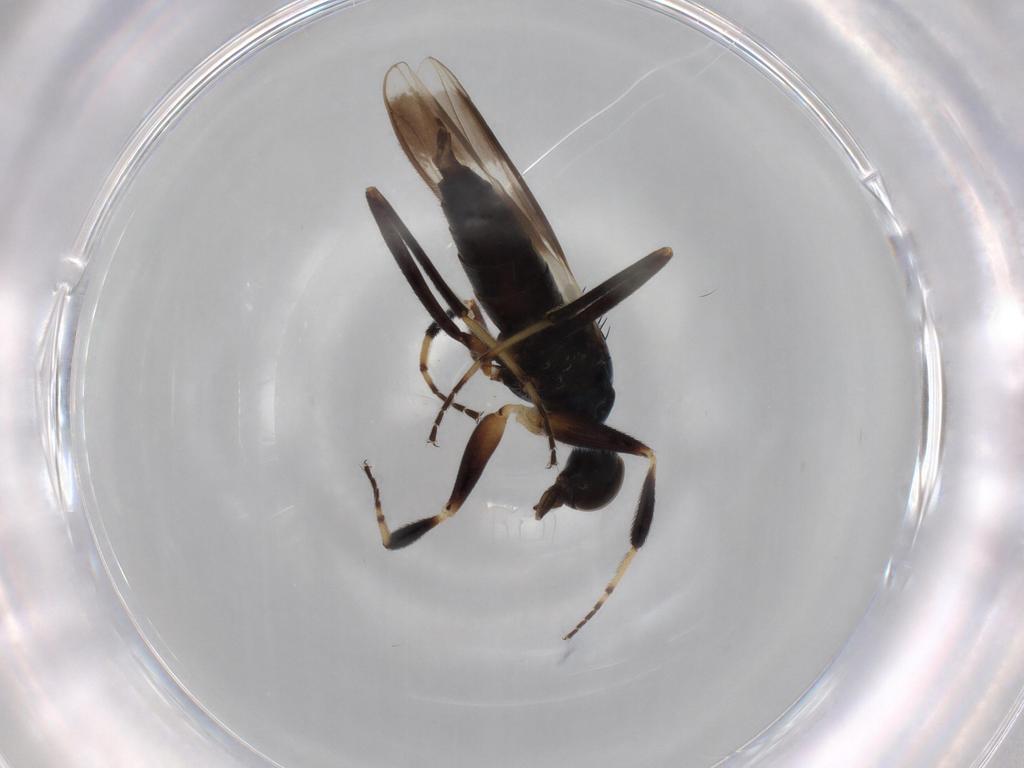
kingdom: Animalia
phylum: Arthropoda
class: Insecta
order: Diptera
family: Hybotidae
